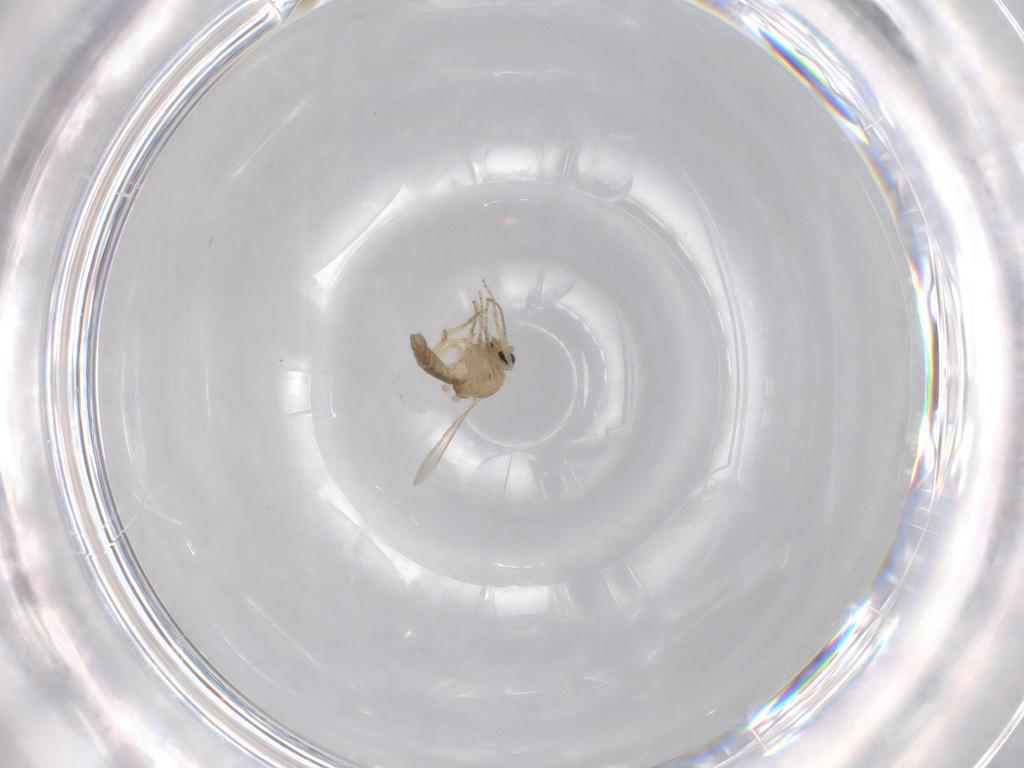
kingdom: Animalia
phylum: Arthropoda
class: Insecta
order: Diptera
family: Ceratopogonidae
